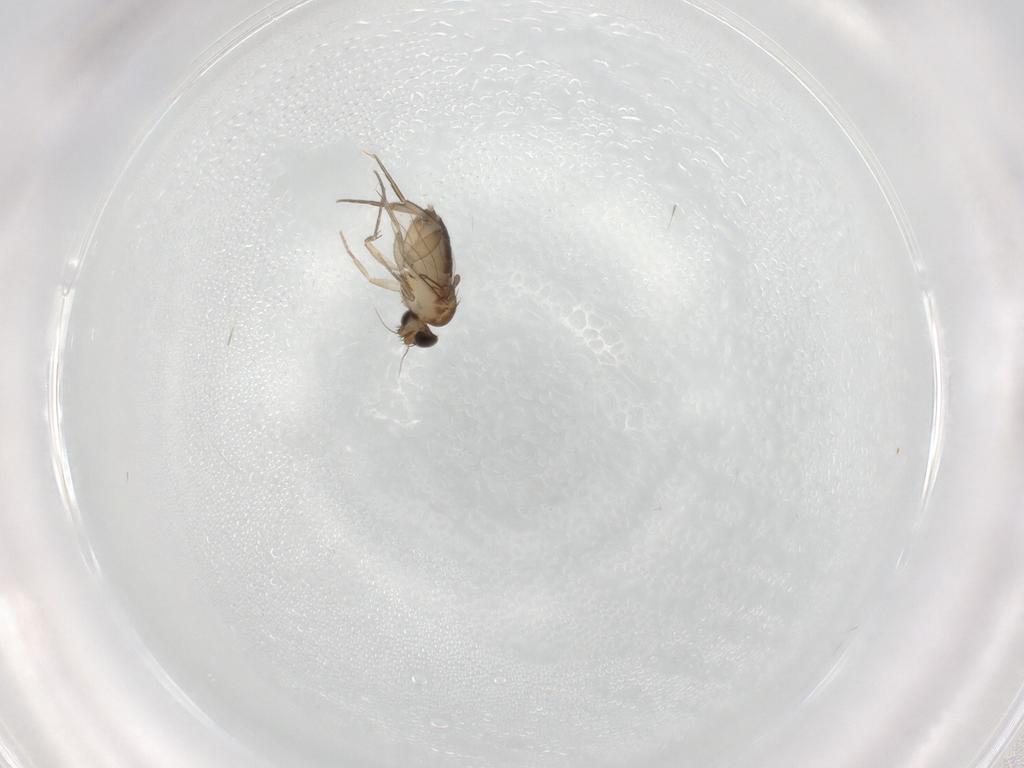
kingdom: Animalia
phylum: Arthropoda
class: Insecta
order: Diptera
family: Phoridae
